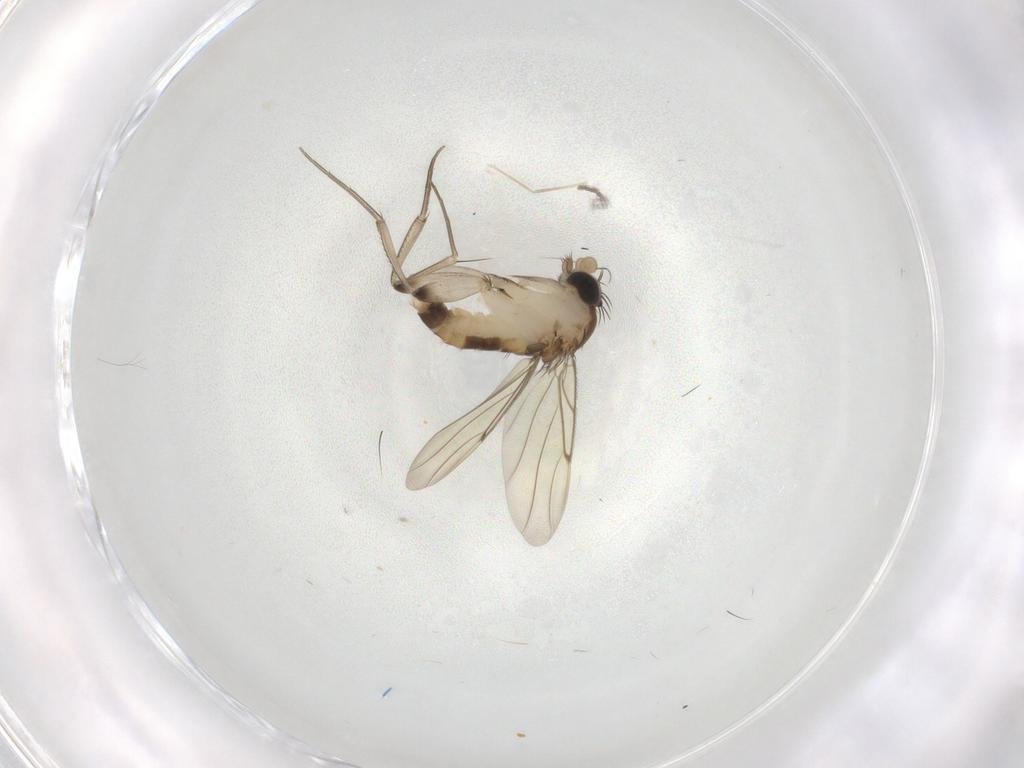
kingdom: Animalia
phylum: Arthropoda
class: Insecta
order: Diptera
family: Cecidomyiidae
